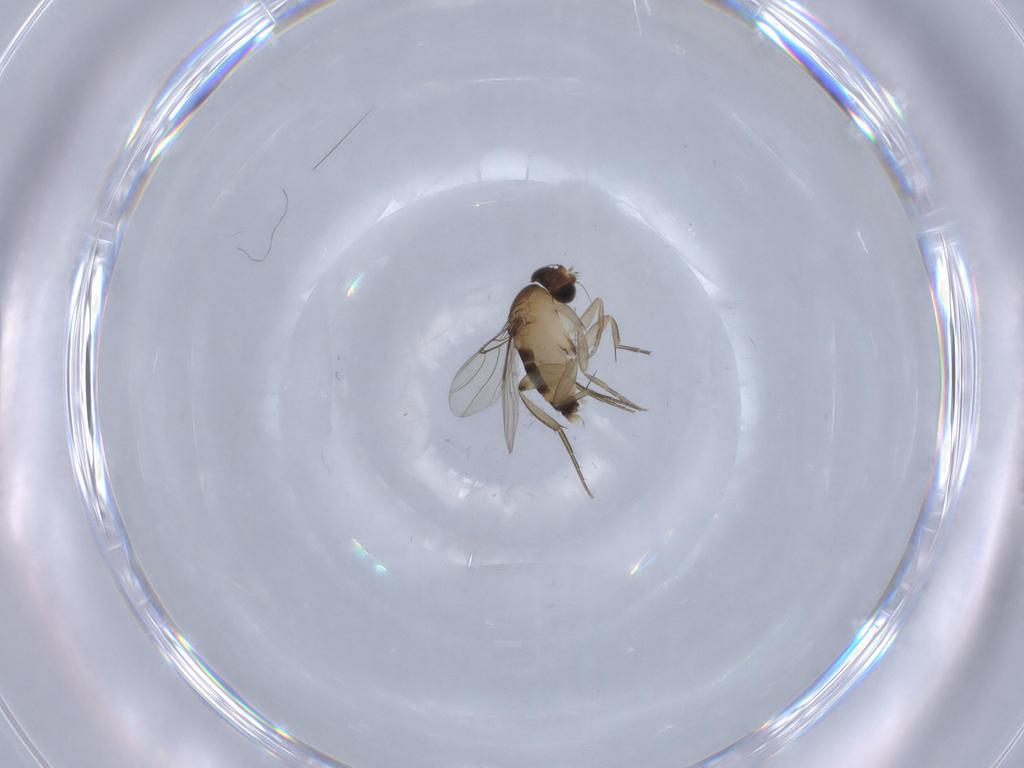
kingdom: Animalia
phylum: Arthropoda
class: Insecta
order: Diptera
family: Phoridae
